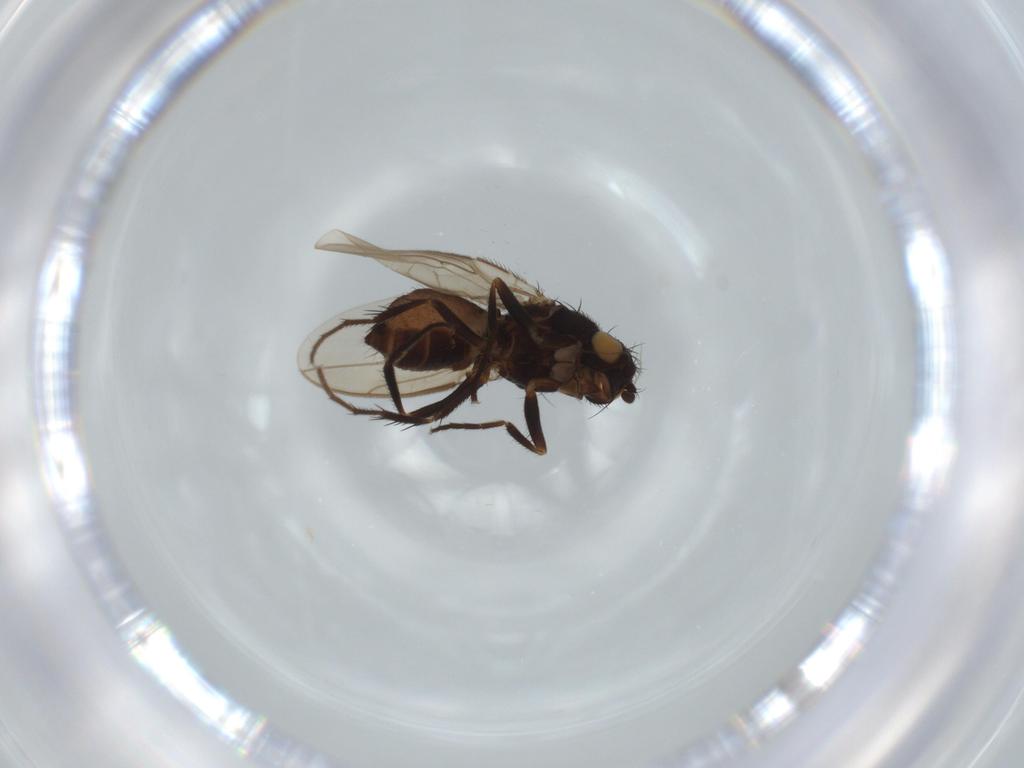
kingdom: Animalia
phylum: Arthropoda
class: Insecta
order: Diptera
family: Sphaeroceridae
